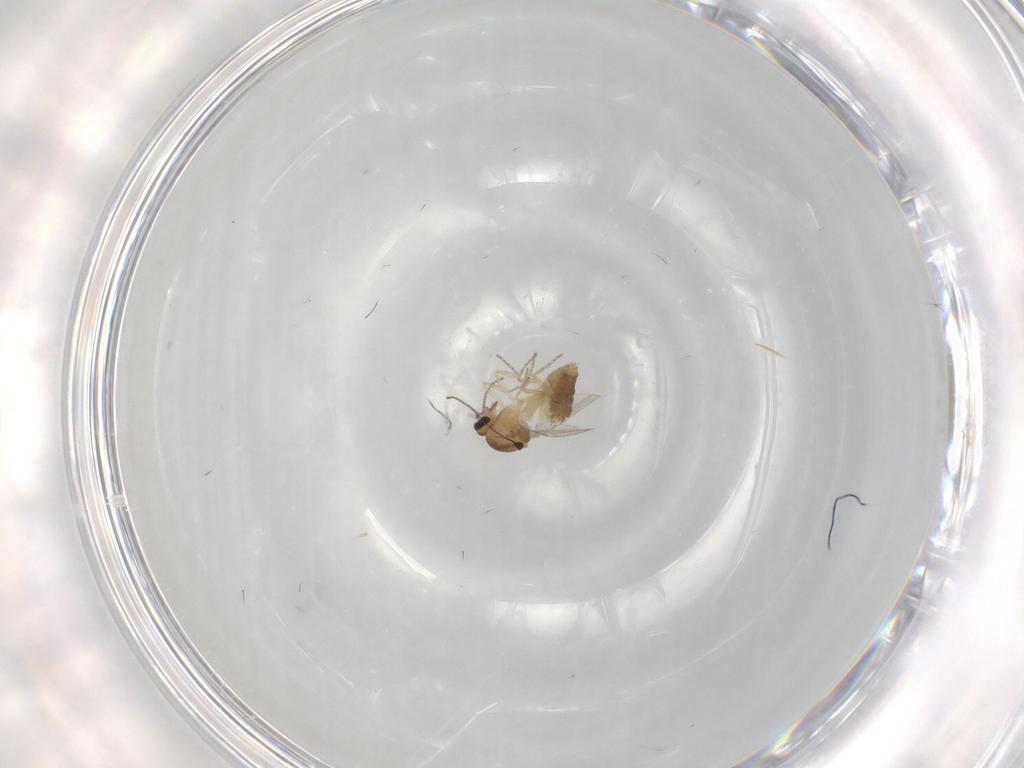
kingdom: Animalia
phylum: Arthropoda
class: Insecta
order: Diptera
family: Ceratopogonidae
